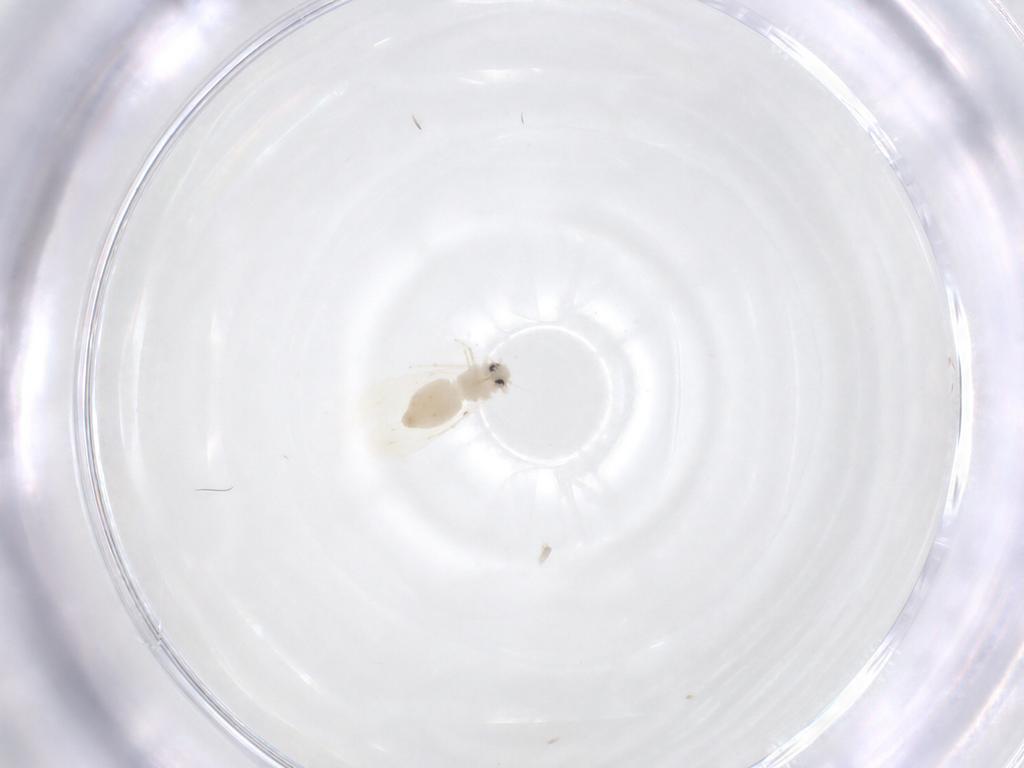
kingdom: Animalia
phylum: Arthropoda
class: Insecta
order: Hemiptera
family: Aleyrodidae
